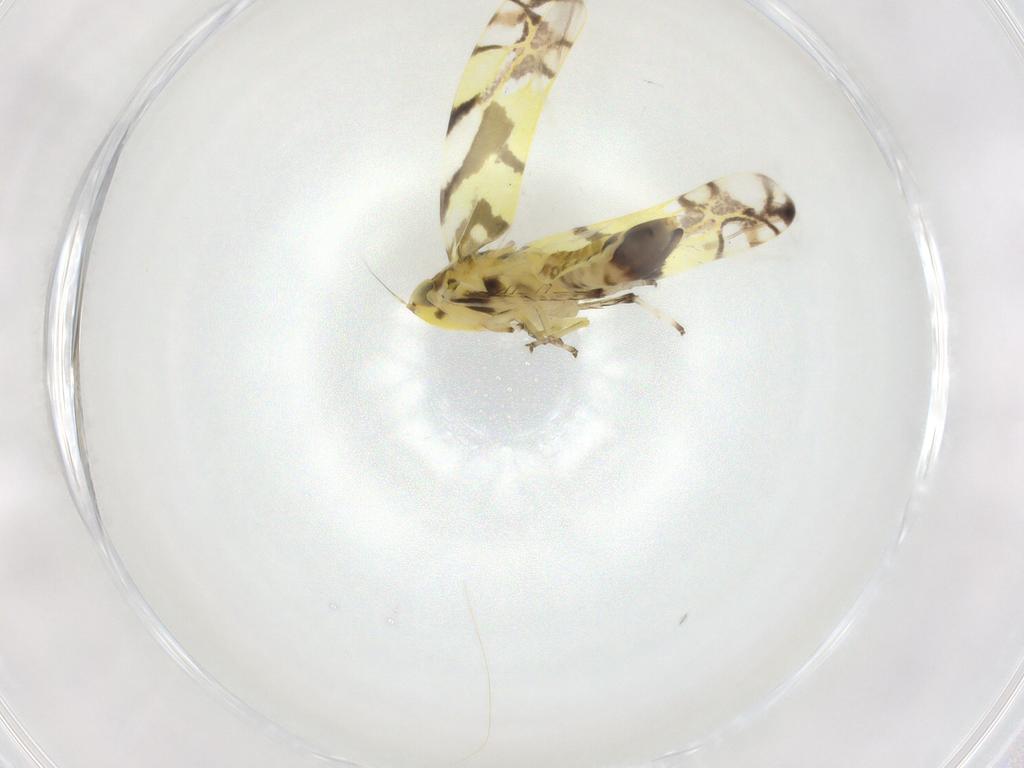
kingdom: Animalia
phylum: Arthropoda
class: Insecta
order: Hemiptera
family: Cicadellidae
